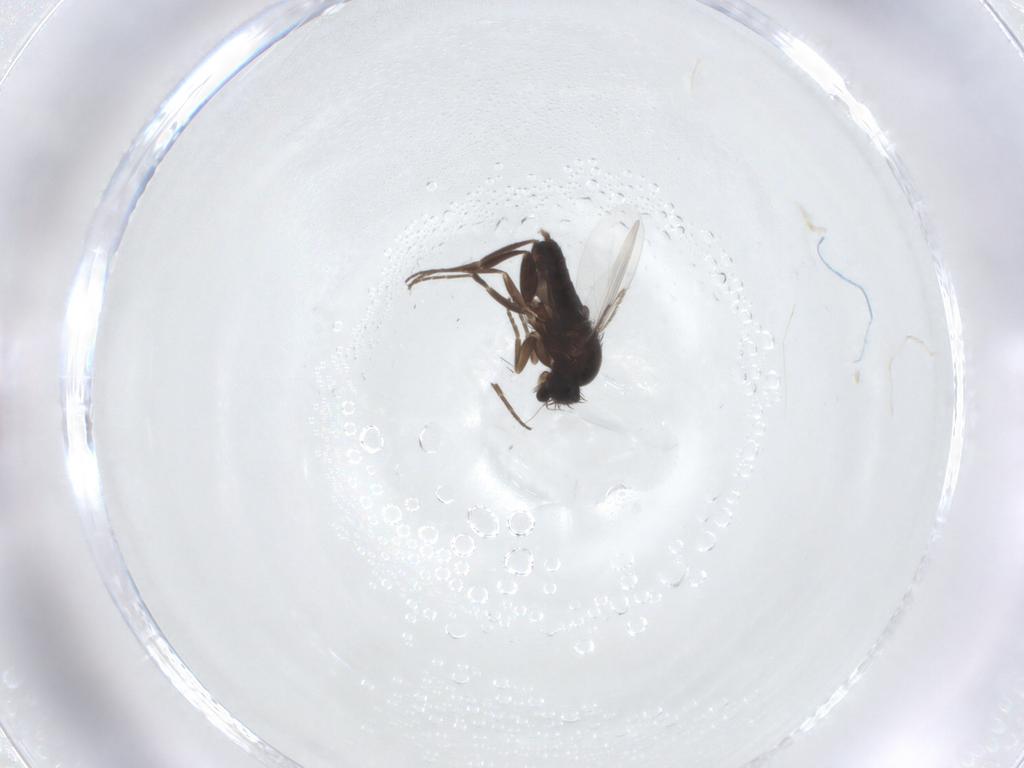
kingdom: Animalia
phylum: Arthropoda
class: Insecta
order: Diptera
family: Phoridae
